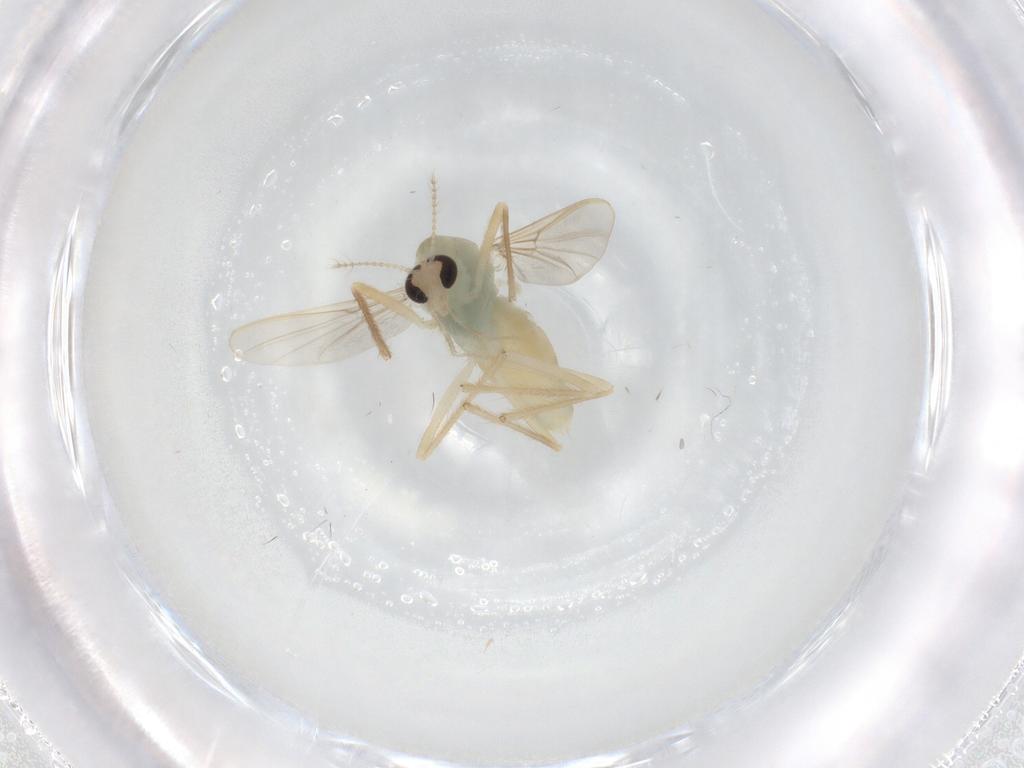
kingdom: Animalia
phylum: Arthropoda
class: Insecta
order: Diptera
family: Chironomidae
